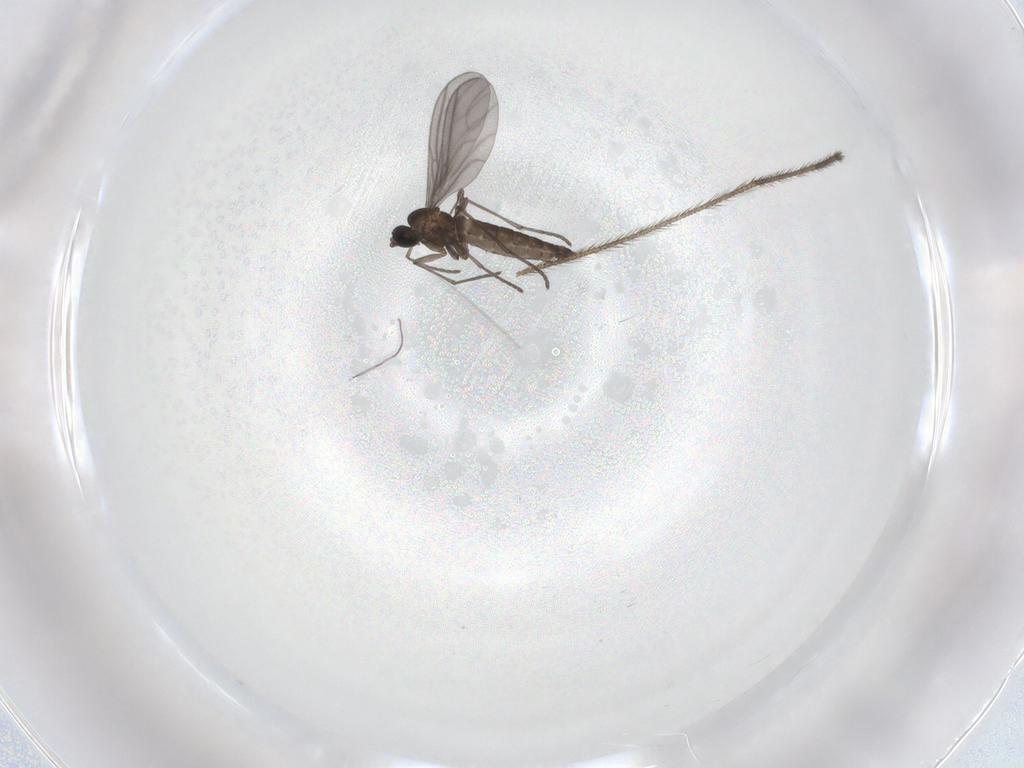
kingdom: Animalia
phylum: Arthropoda
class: Insecta
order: Diptera
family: Tipulidae
